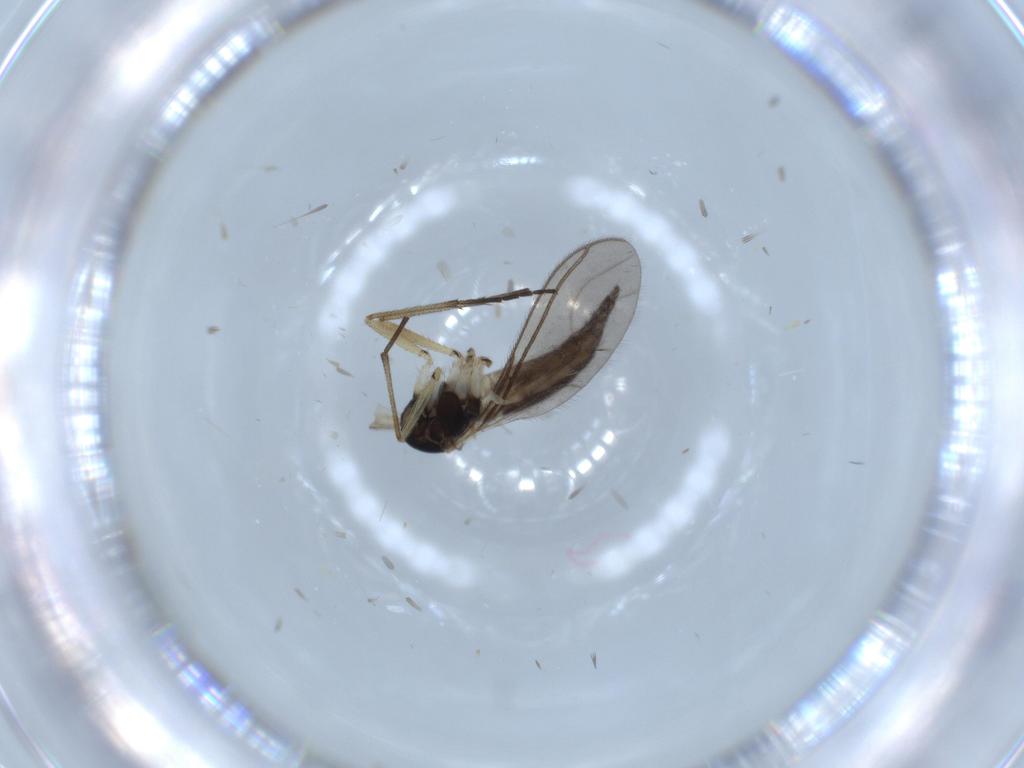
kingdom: Animalia
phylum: Arthropoda
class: Insecta
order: Diptera
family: Sciaridae
